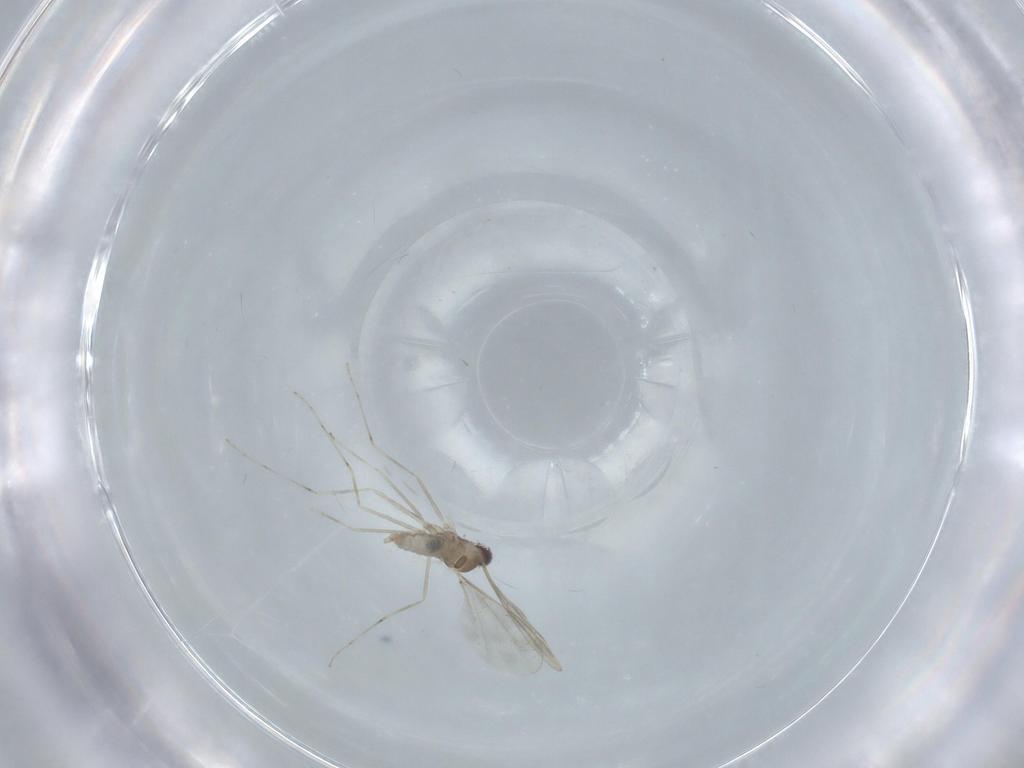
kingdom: Animalia
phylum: Arthropoda
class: Insecta
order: Diptera
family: Cecidomyiidae
